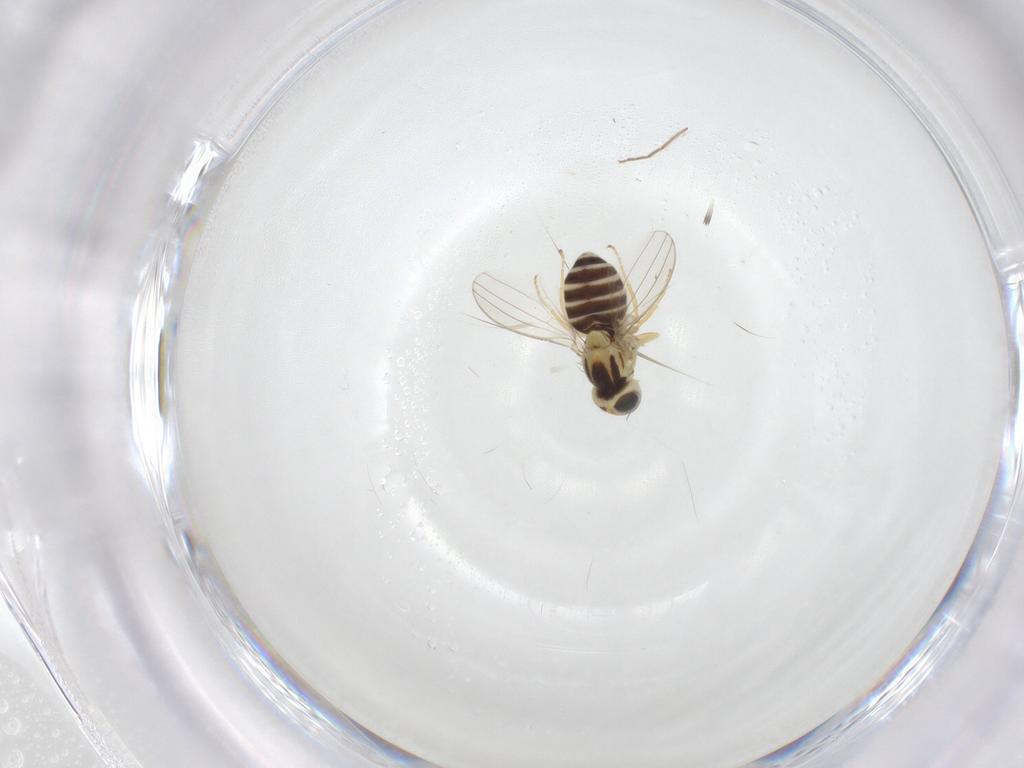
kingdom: Animalia
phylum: Arthropoda
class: Insecta
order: Diptera
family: Chyromyidae
